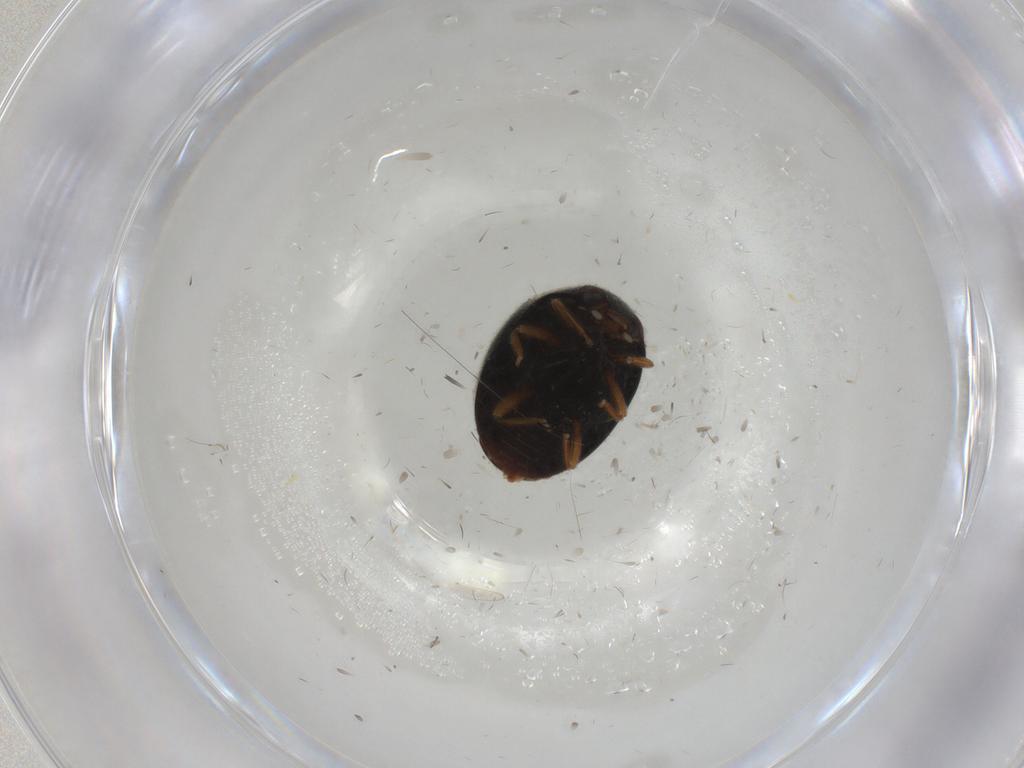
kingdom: Animalia
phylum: Arthropoda
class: Insecta
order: Coleoptera
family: Coccinellidae
